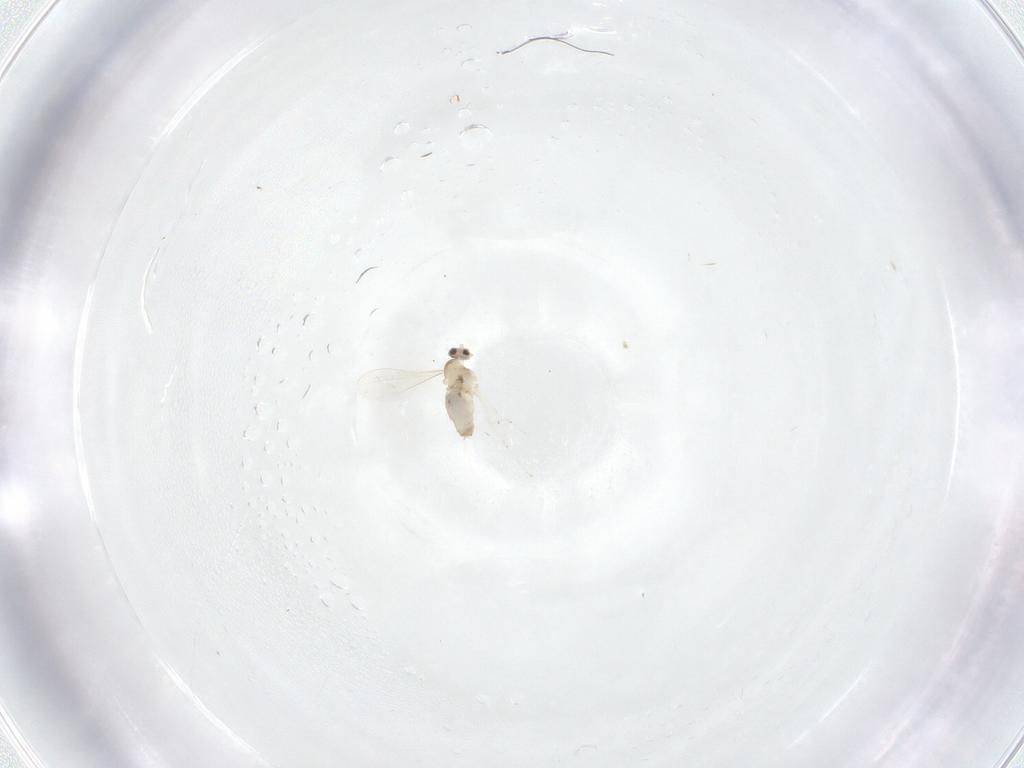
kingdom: Animalia
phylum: Arthropoda
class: Insecta
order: Diptera
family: Cecidomyiidae
